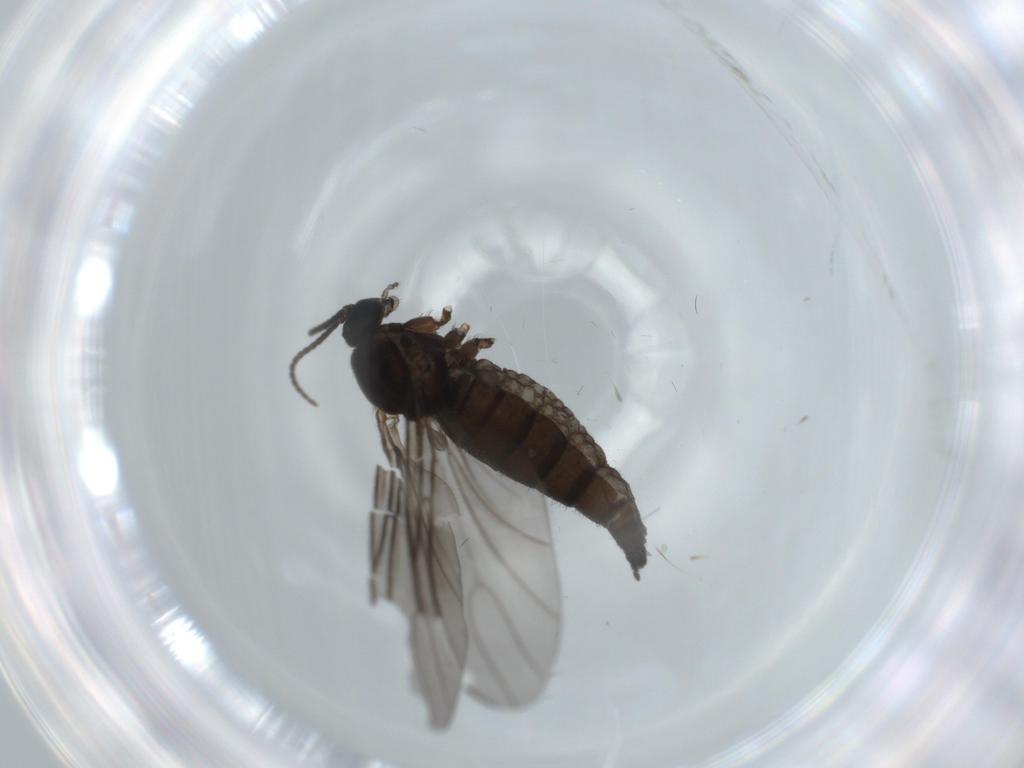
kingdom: Animalia
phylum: Arthropoda
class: Insecta
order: Diptera
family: Sciaridae
